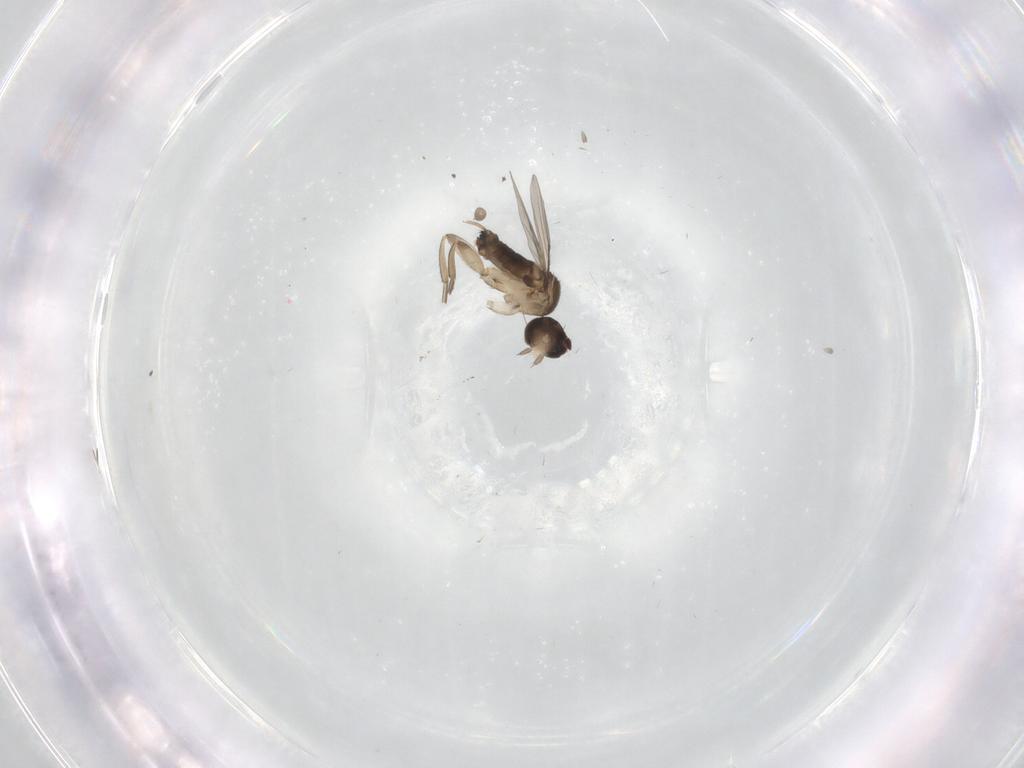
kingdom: Animalia
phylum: Arthropoda
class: Insecta
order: Diptera
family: Phoridae
